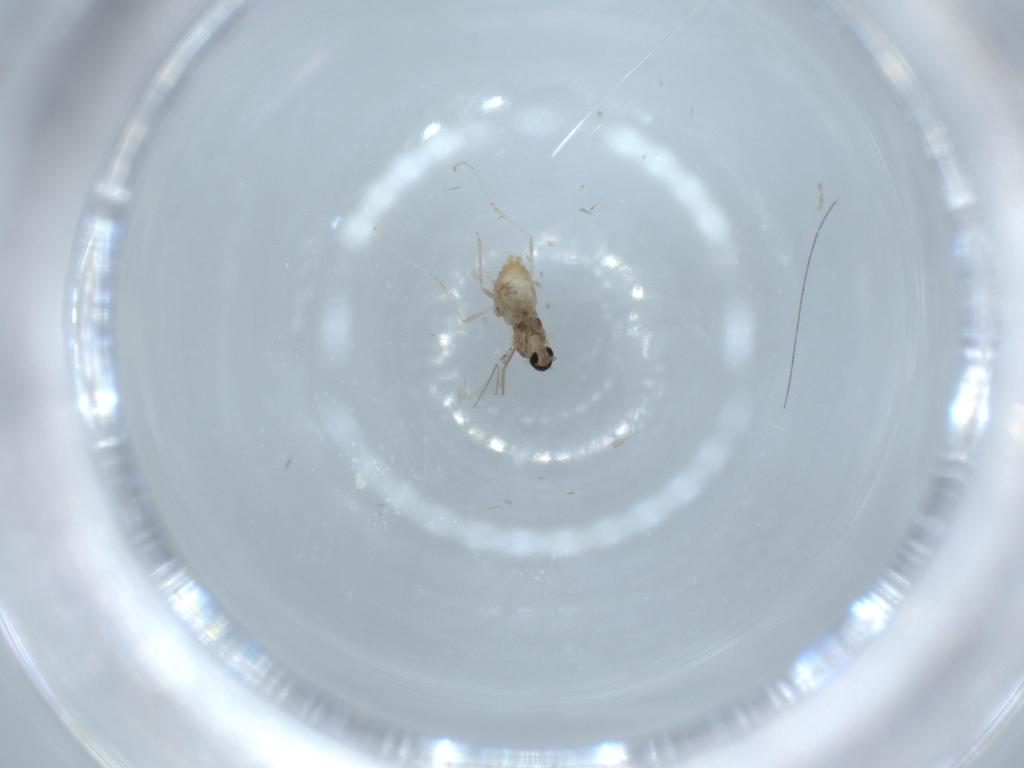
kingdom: Animalia
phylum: Arthropoda
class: Insecta
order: Diptera
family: Cecidomyiidae
